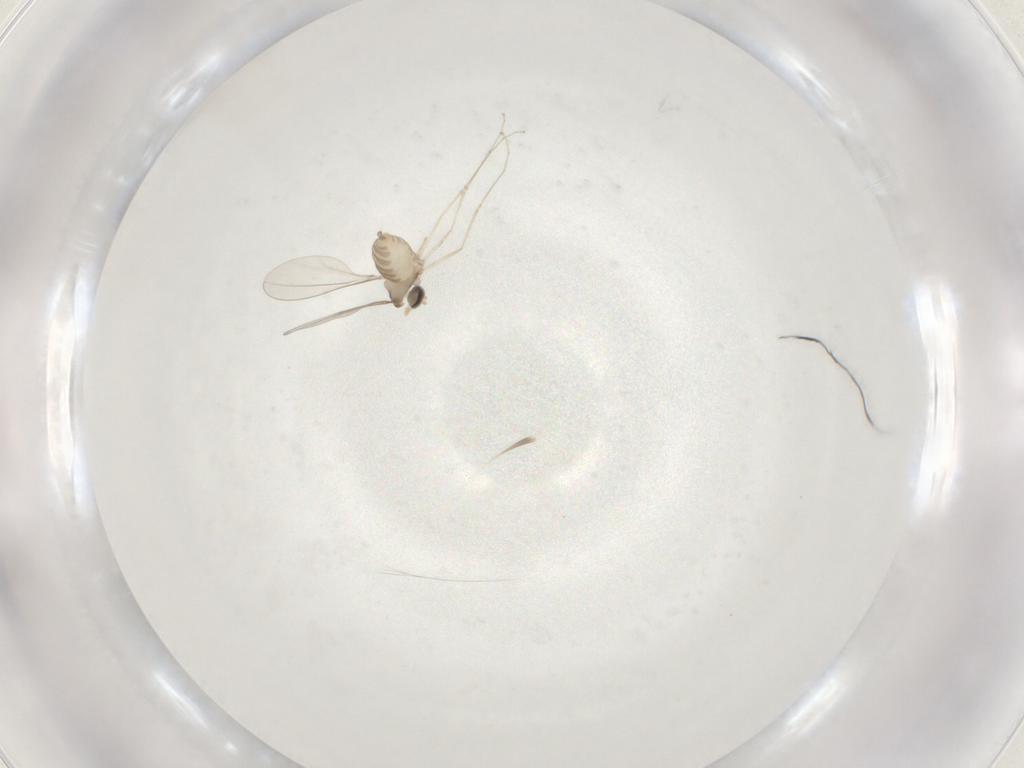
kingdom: Animalia
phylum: Arthropoda
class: Insecta
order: Diptera
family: Cecidomyiidae
